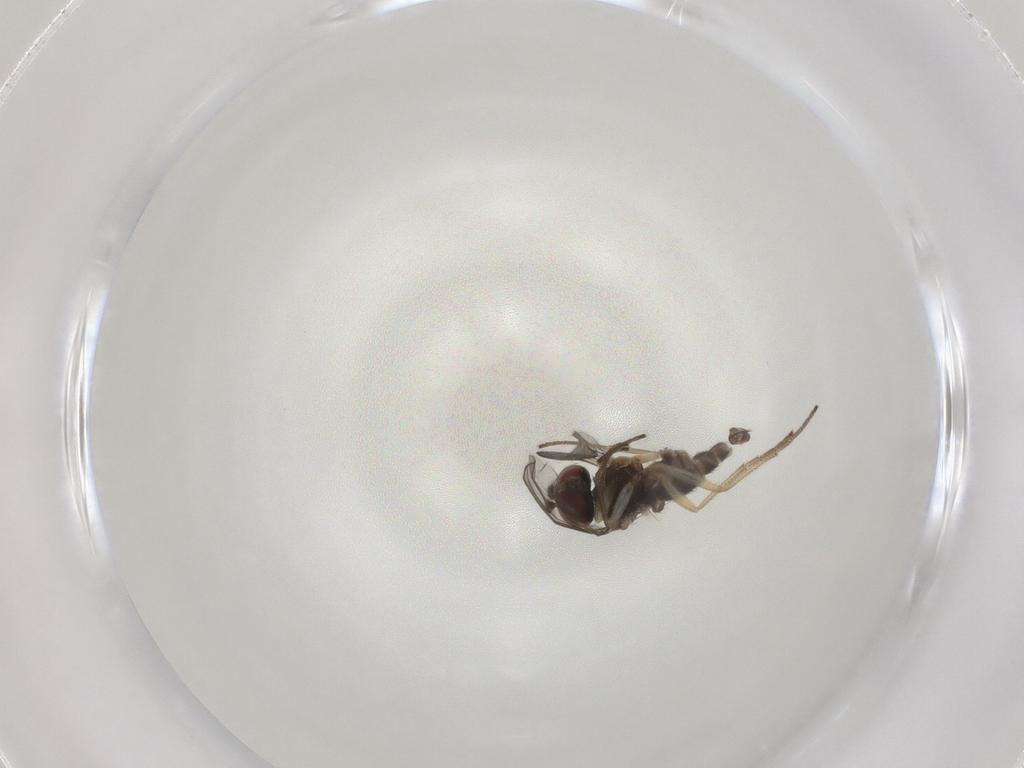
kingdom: Animalia
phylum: Arthropoda
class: Insecta
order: Diptera
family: Dolichopodidae
